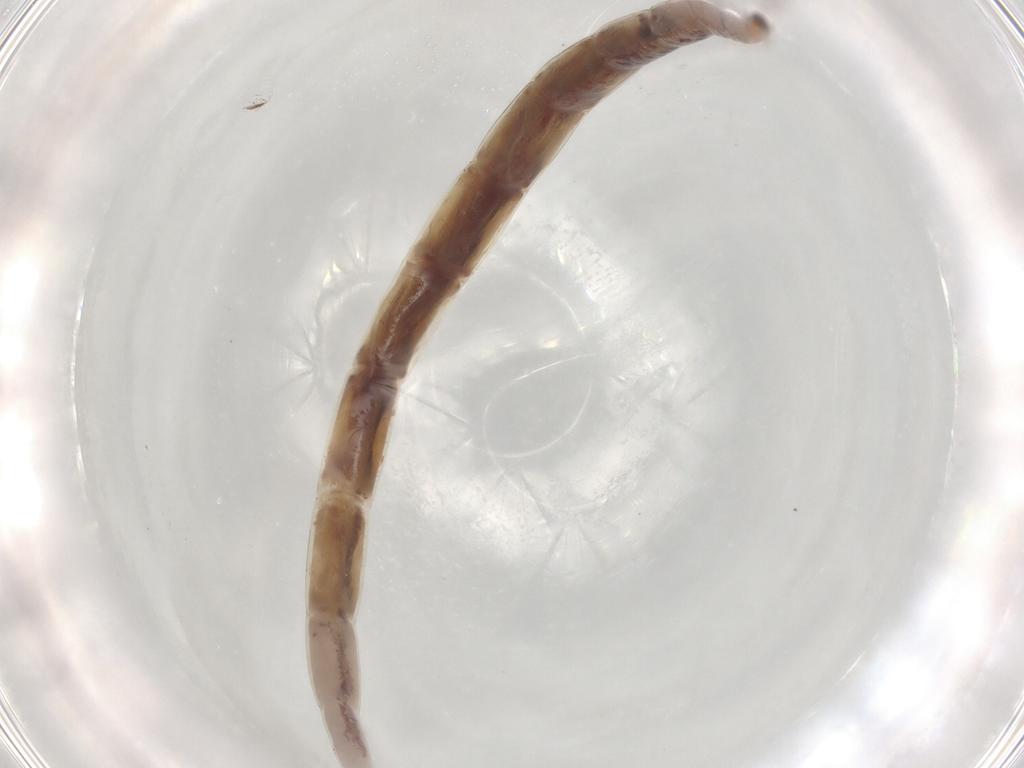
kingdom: Animalia
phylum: Arthropoda
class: Insecta
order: Diptera
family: Ceratopogonidae
